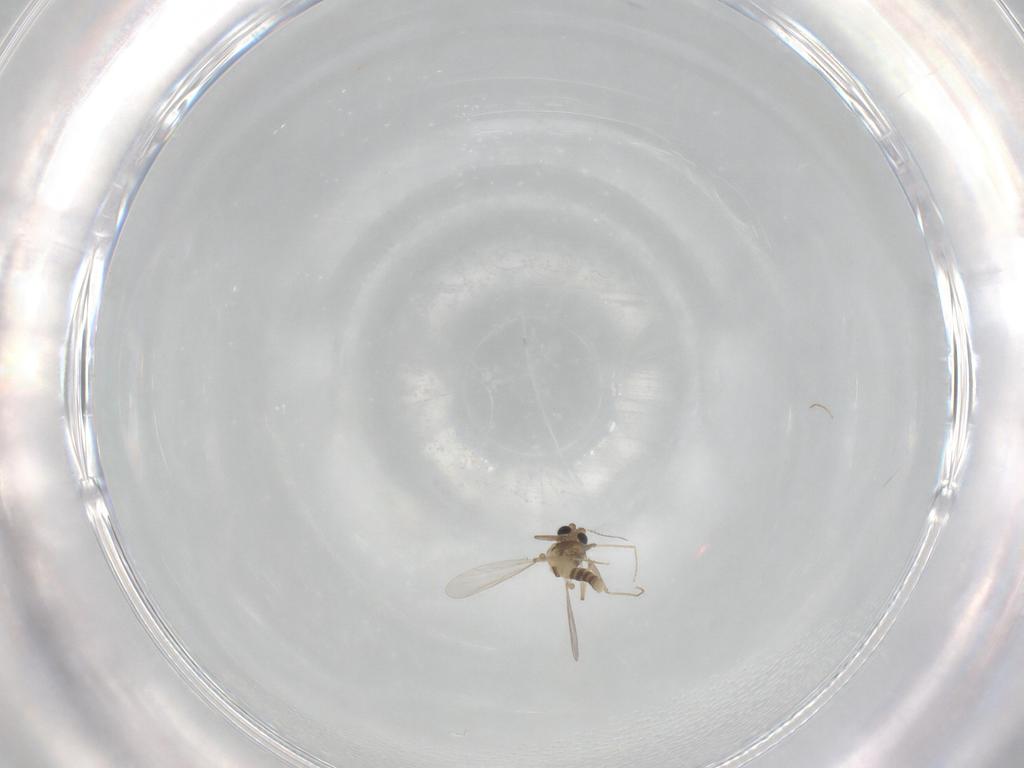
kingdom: Animalia
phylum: Arthropoda
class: Insecta
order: Diptera
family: Chironomidae
